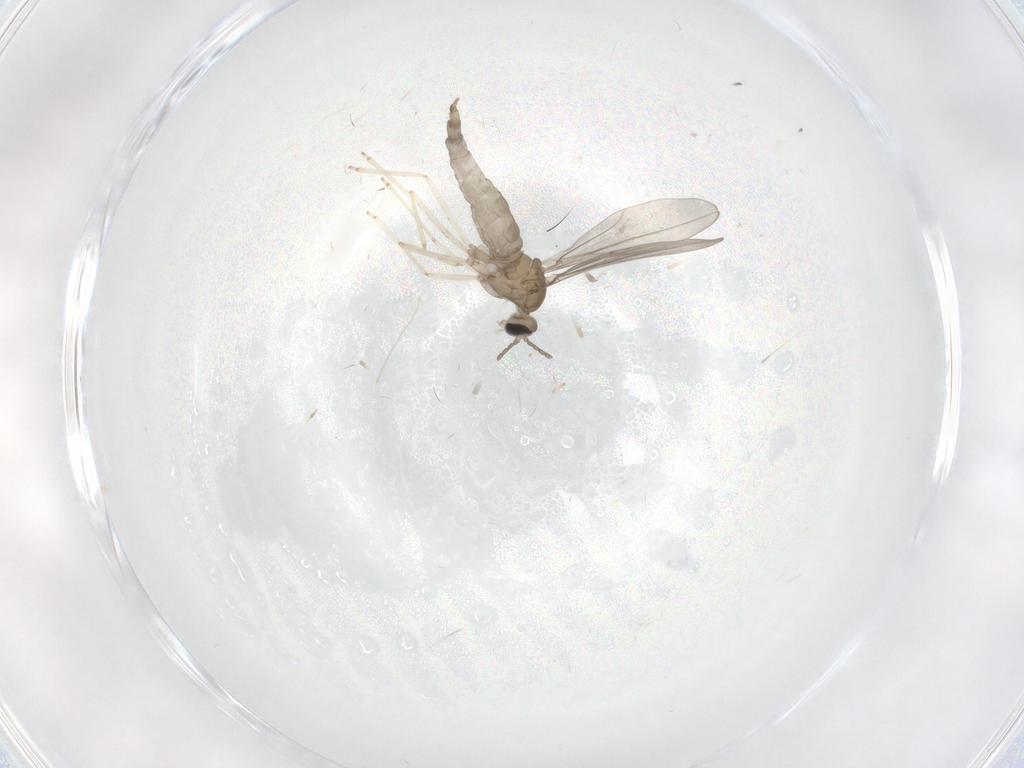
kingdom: Animalia
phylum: Arthropoda
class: Insecta
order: Diptera
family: Cecidomyiidae
